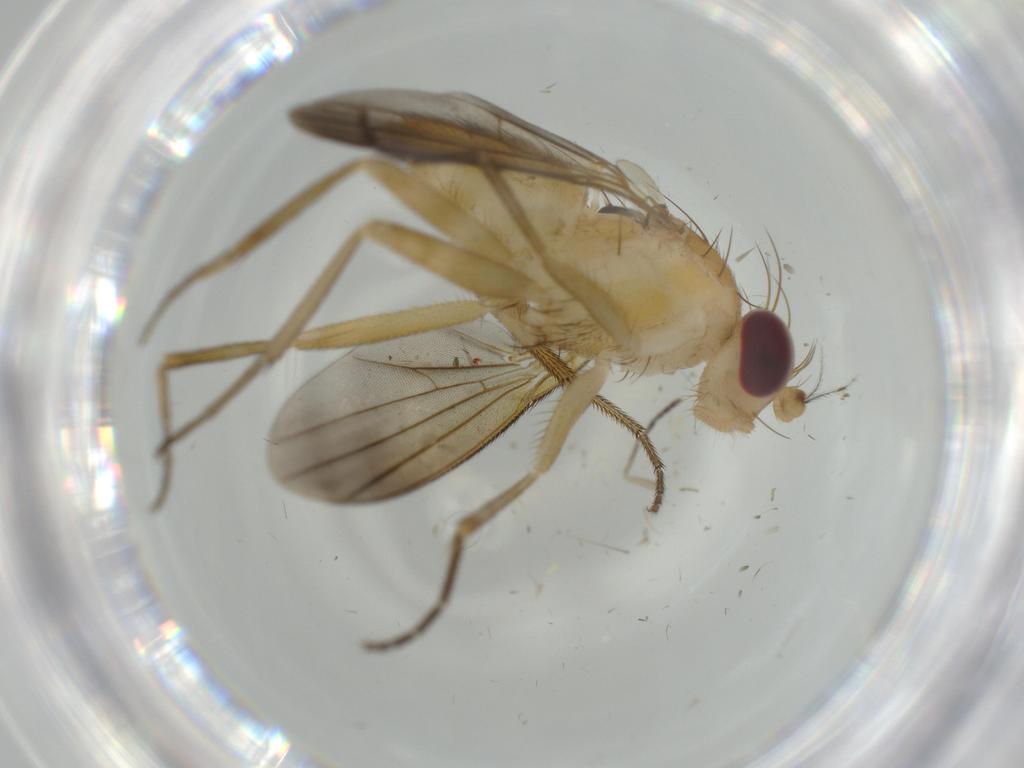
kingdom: Animalia
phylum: Arthropoda
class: Insecta
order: Diptera
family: Clusiidae
